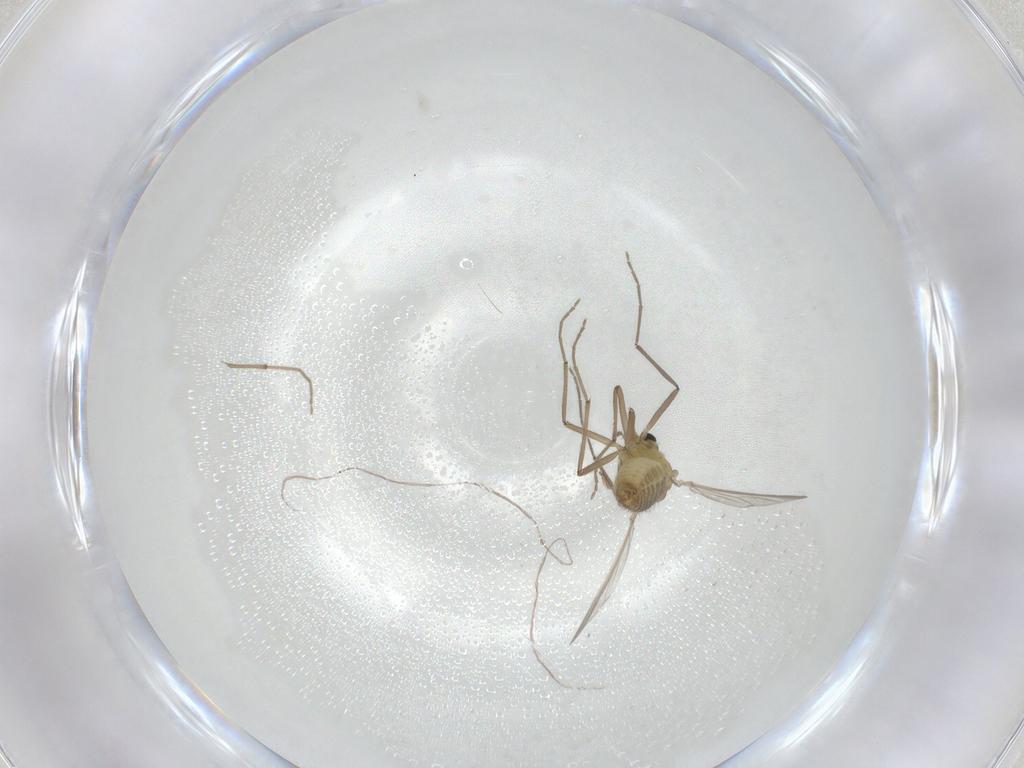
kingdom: Animalia
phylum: Arthropoda
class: Insecta
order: Diptera
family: Chironomidae
